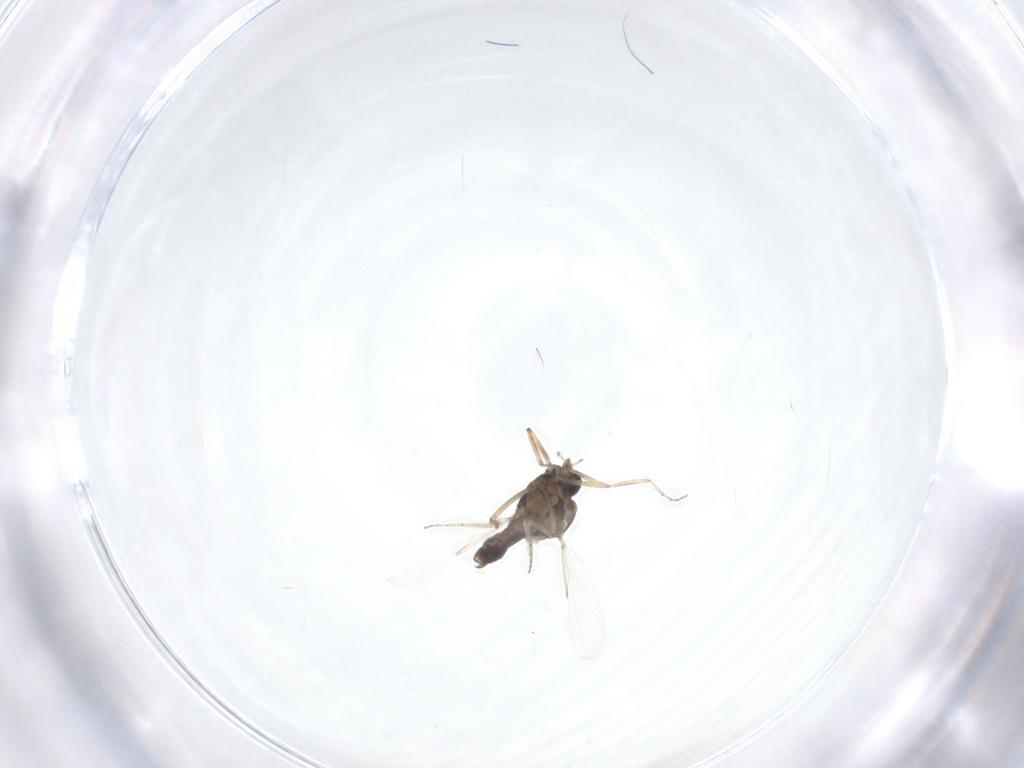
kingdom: Animalia
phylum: Arthropoda
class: Insecta
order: Diptera
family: Ceratopogonidae
